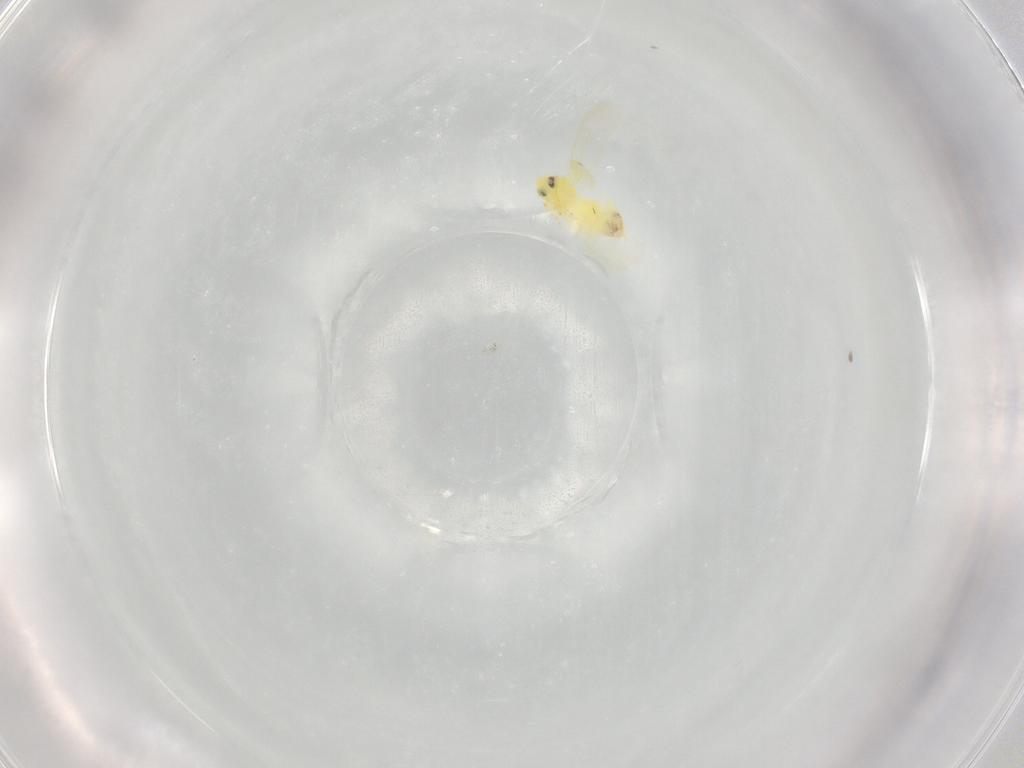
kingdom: Animalia
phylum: Arthropoda
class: Insecta
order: Hemiptera
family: Aleyrodidae
